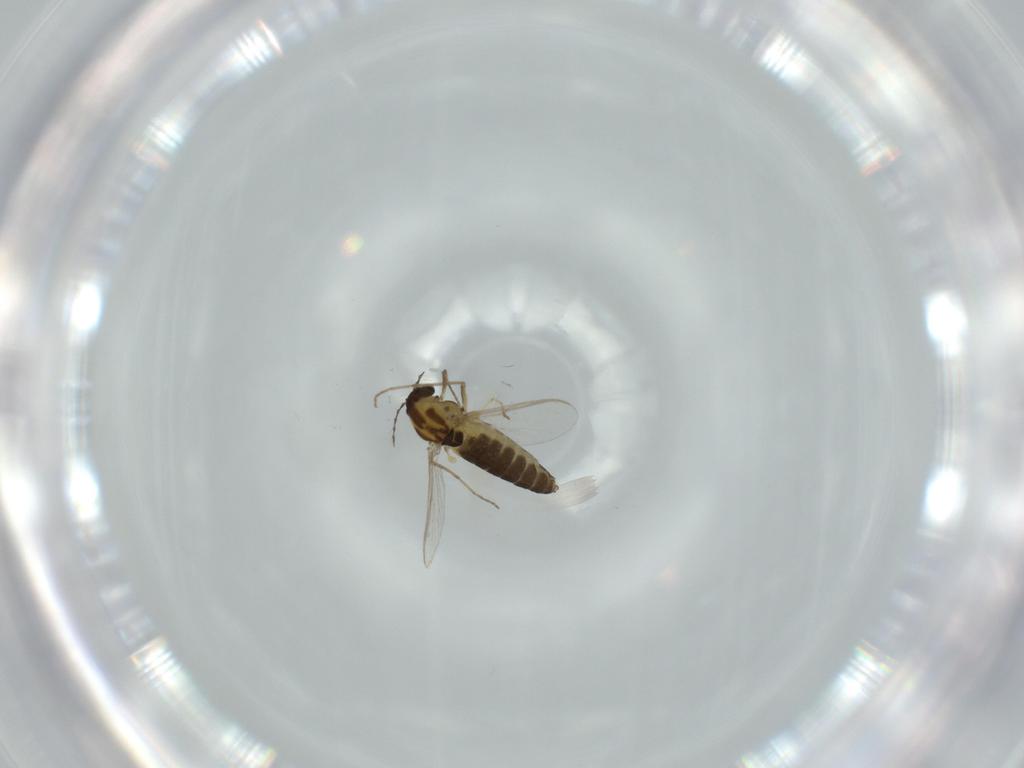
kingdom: Animalia
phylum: Arthropoda
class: Insecta
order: Diptera
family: Chironomidae
